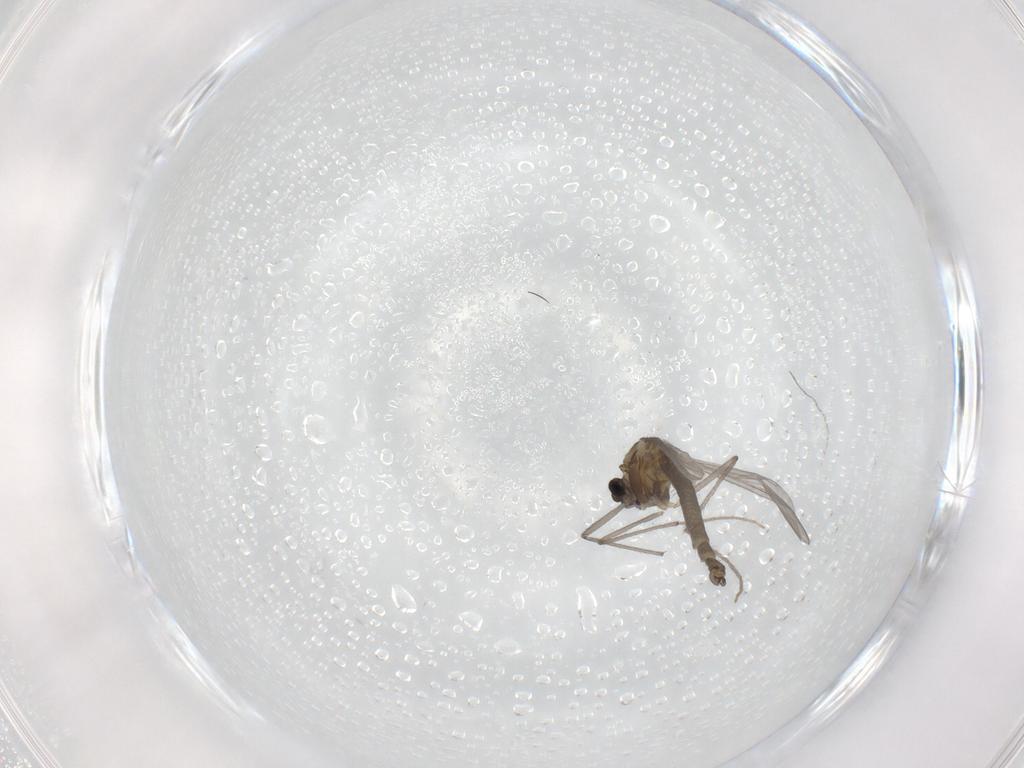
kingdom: Animalia
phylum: Arthropoda
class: Insecta
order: Diptera
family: Chironomidae
